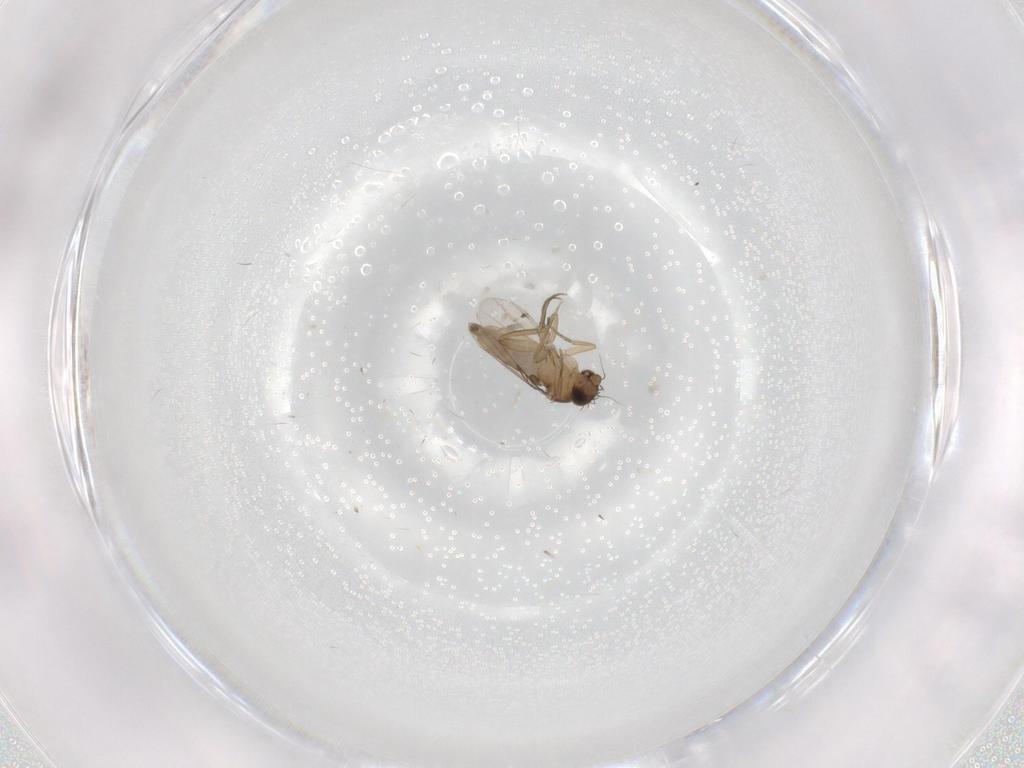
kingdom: Animalia
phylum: Arthropoda
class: Insecta
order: Diptera
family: Phoridae
